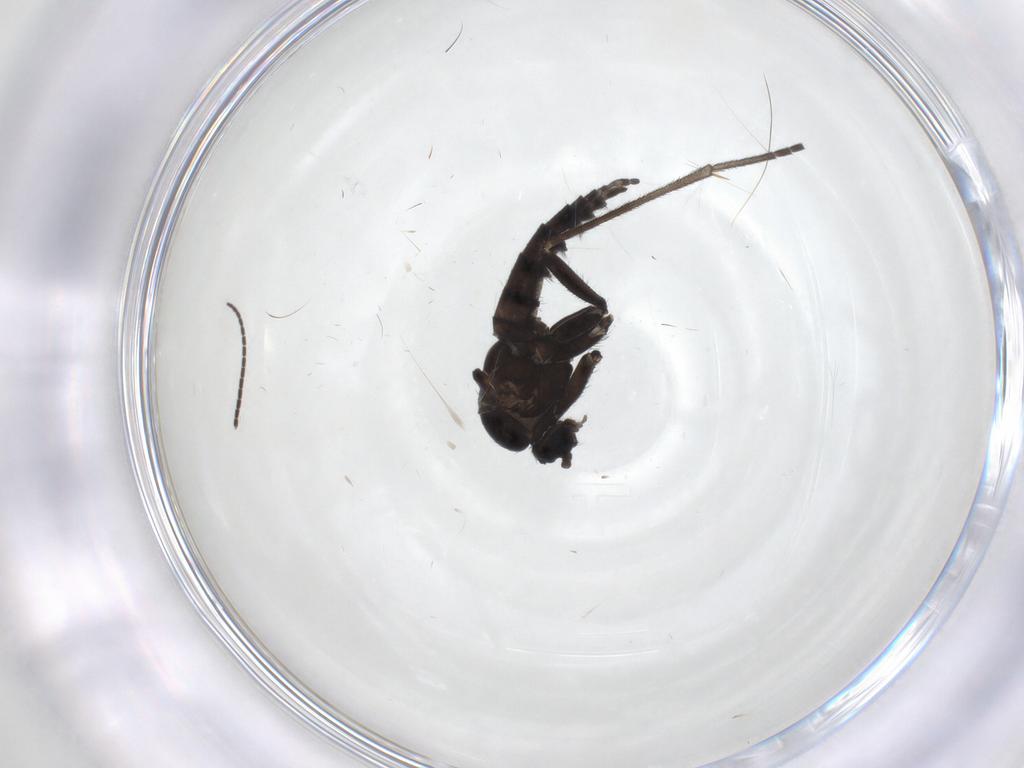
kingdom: Animalia
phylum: Arthropoda
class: Insecta
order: Diptera
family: Sciaridae
